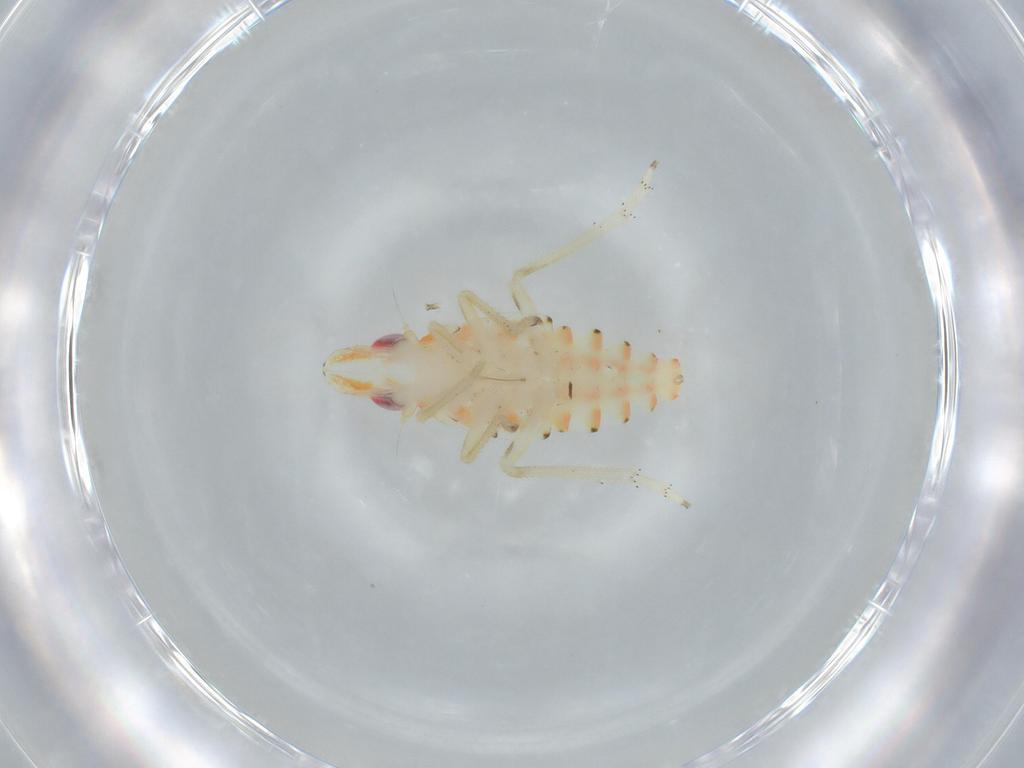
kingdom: Animalia
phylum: Arthropoda
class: Insecta
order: Hemiptera
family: Tropiduchidae
